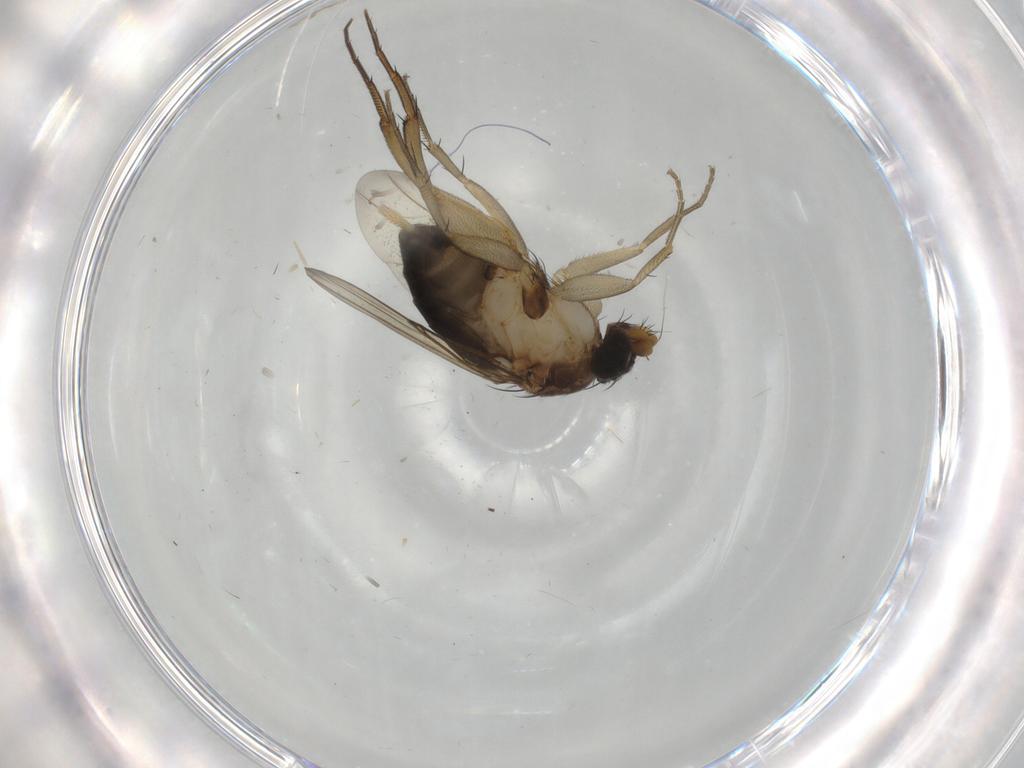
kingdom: Animalia
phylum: Arthropoda
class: Insecta
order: Diptera
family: Phoridae
